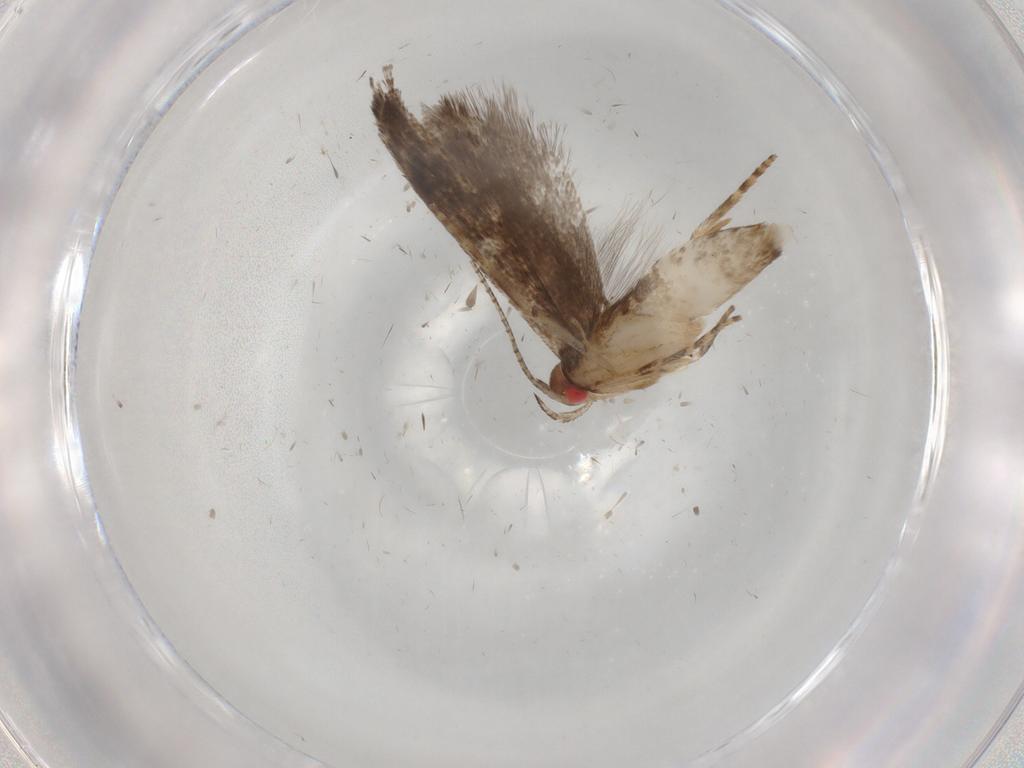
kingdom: Animalia
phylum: Arthropoda
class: Insecta
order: Lepidoptera
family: Gelechiidae
